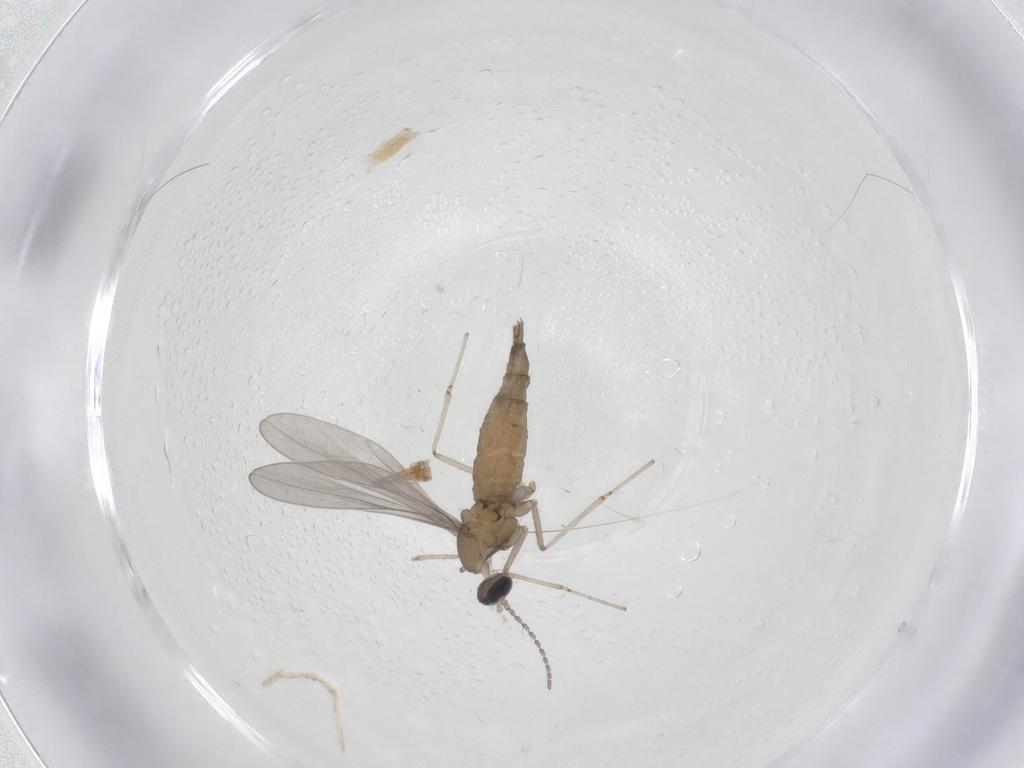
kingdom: Animalia
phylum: Arthropoda
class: Insecta
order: Diptera
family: Sciaridae
